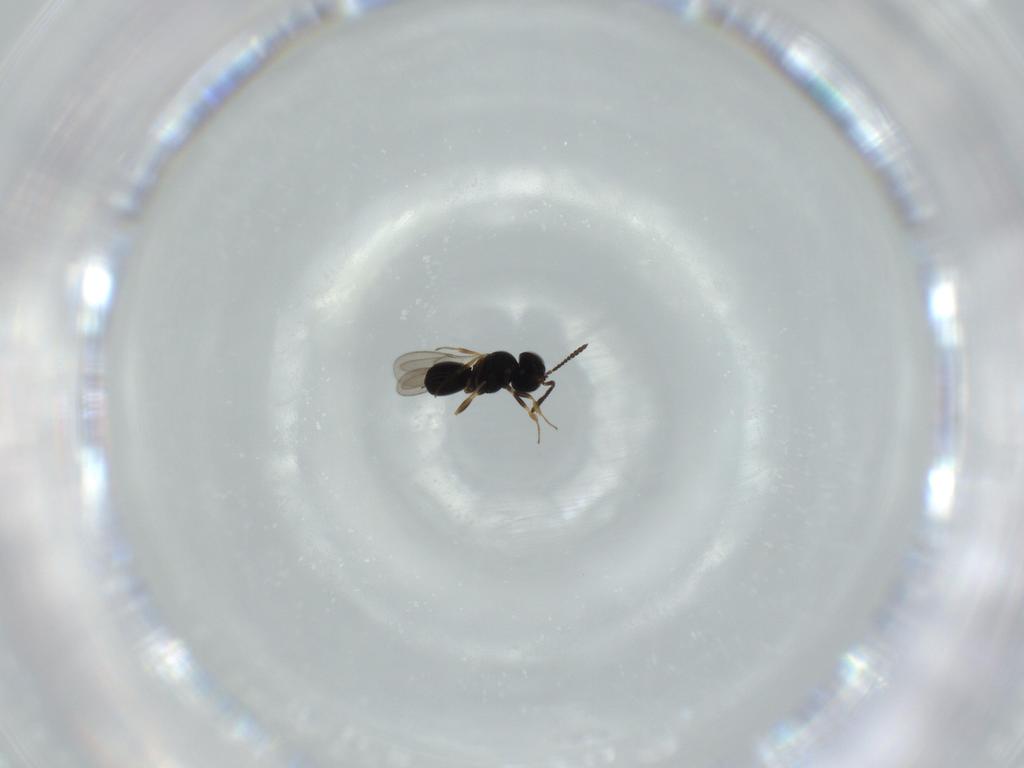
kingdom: Animalia
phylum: Arthropoda
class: Insecta
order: Hymenoptera
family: Scelionidae
